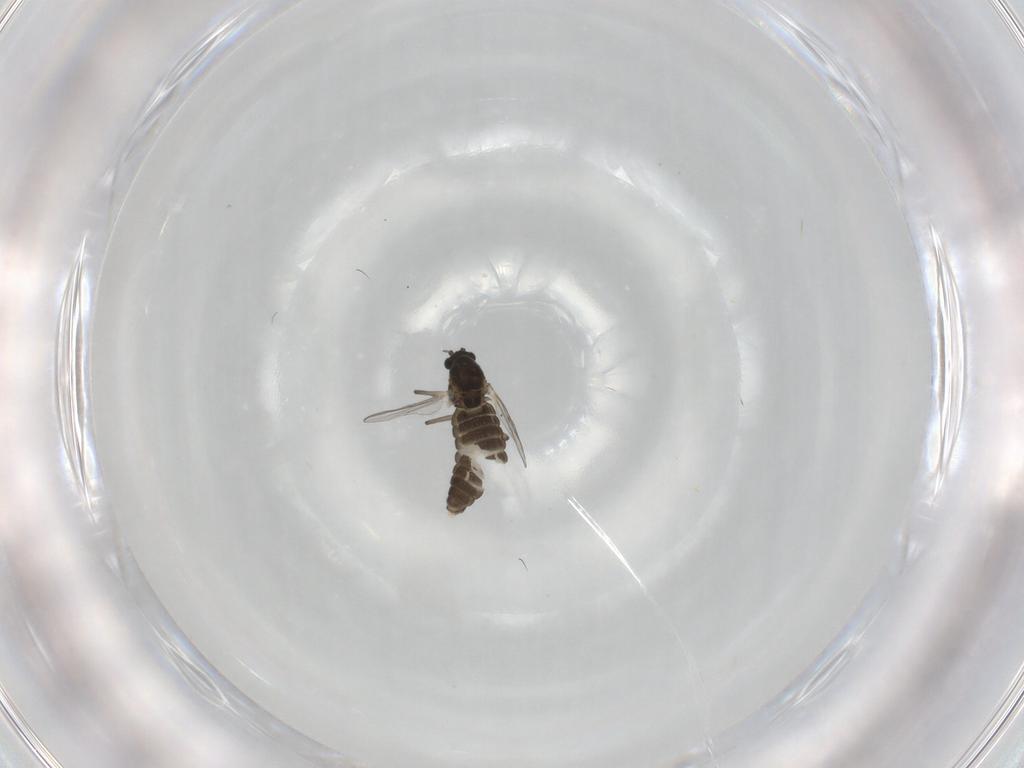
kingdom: Animalia
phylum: Arthropoda
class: Insecta
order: Diptera
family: Chironomidae
